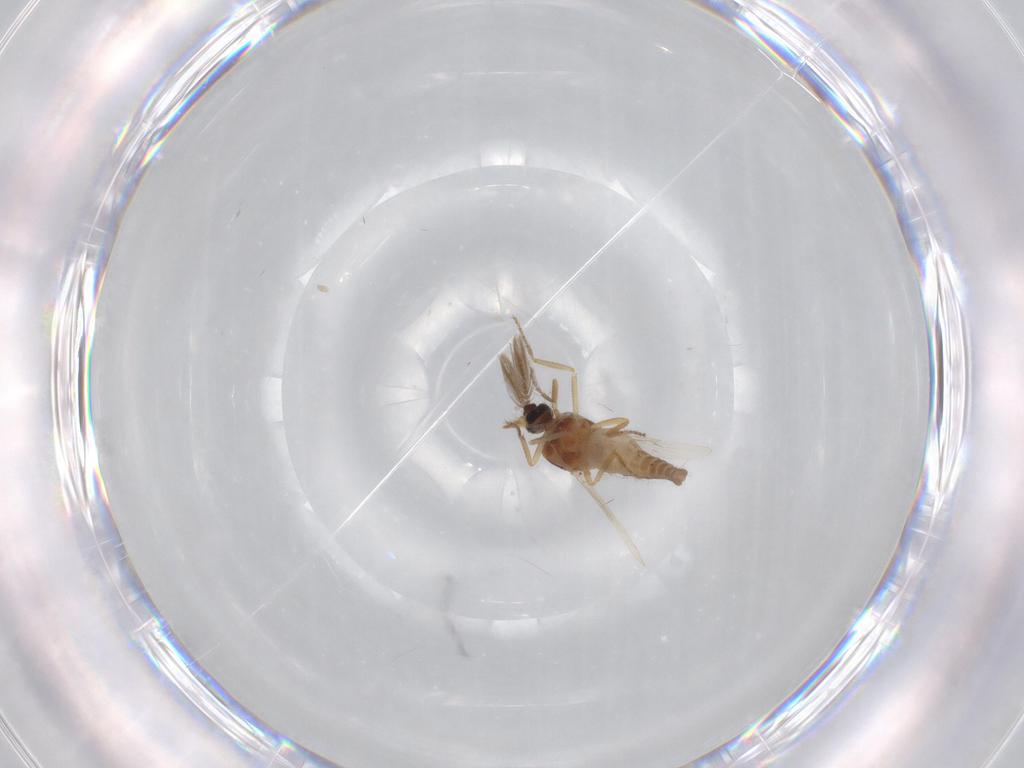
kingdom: Animalia
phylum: Arthropoda
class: Insecta
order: Diptera
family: Ceratopogonidae
